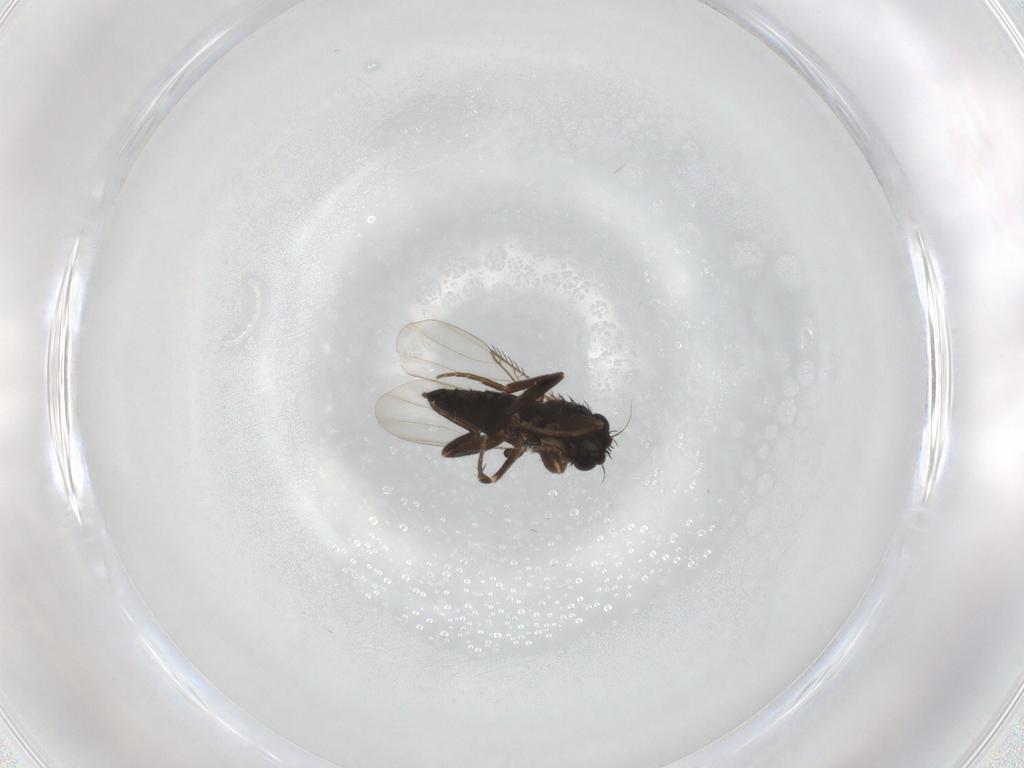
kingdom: Animalia
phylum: Arthropoda
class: Insecta
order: Diptera
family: Phoridae
